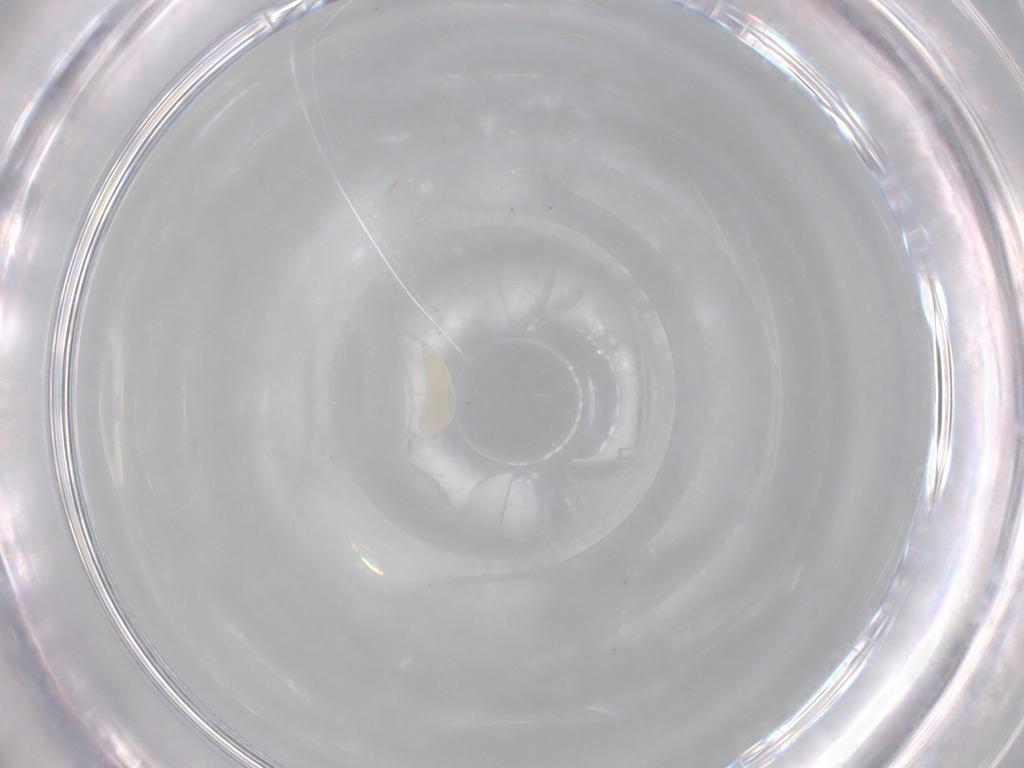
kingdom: Animalia
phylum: Arthropoda
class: Insecta
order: Hymenoptera
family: Ichneumonidae
